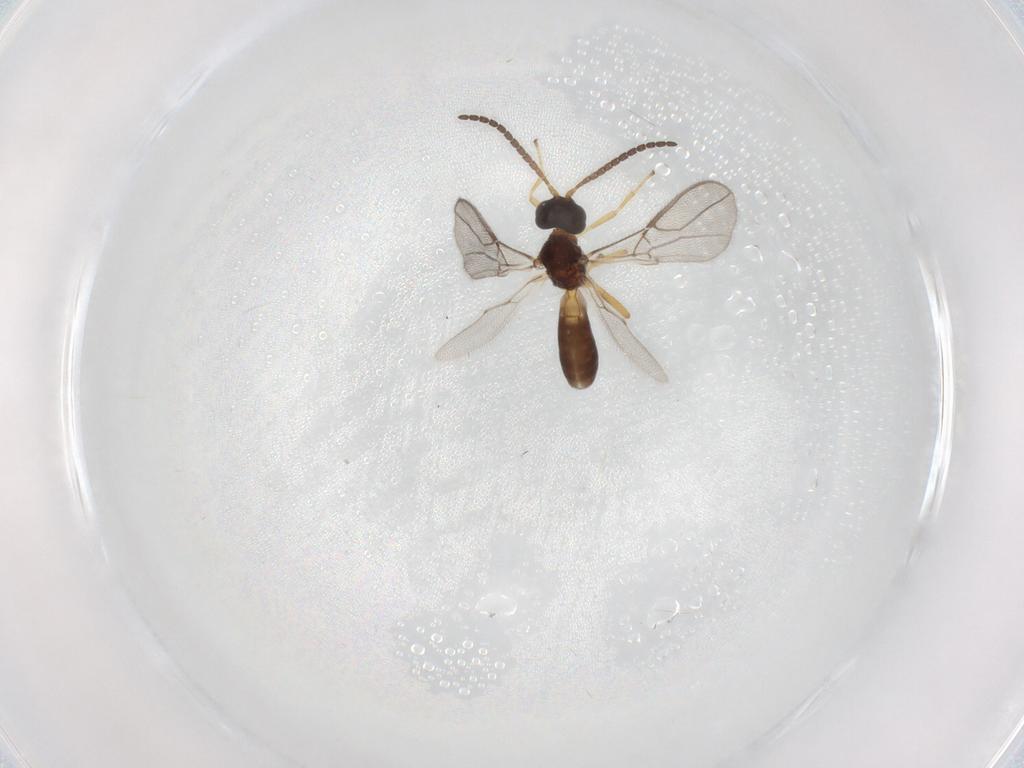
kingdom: Animalia
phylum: Arthropoda
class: Insecta
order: Hymenoptera
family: Braconidae
